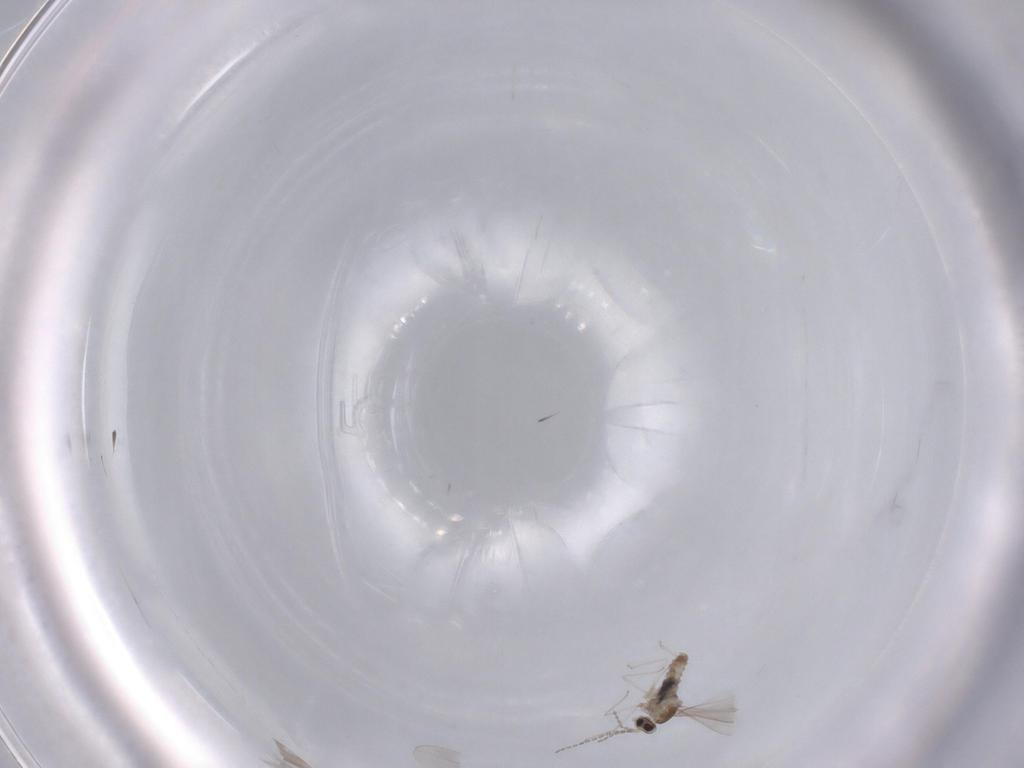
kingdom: Animalia
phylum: Arthropoda
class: Insecta
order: Diptera
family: Cecidomyiidae
